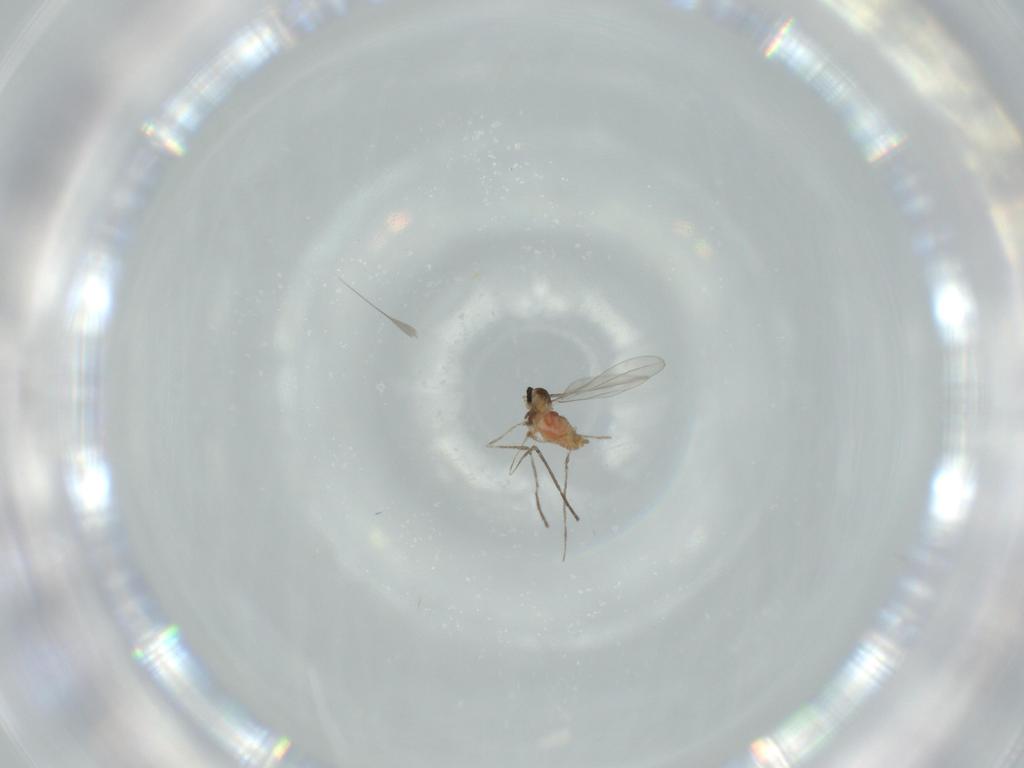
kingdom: Animalia
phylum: Arthropoda
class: Insecta
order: Diptera
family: Cecidomyiidae
